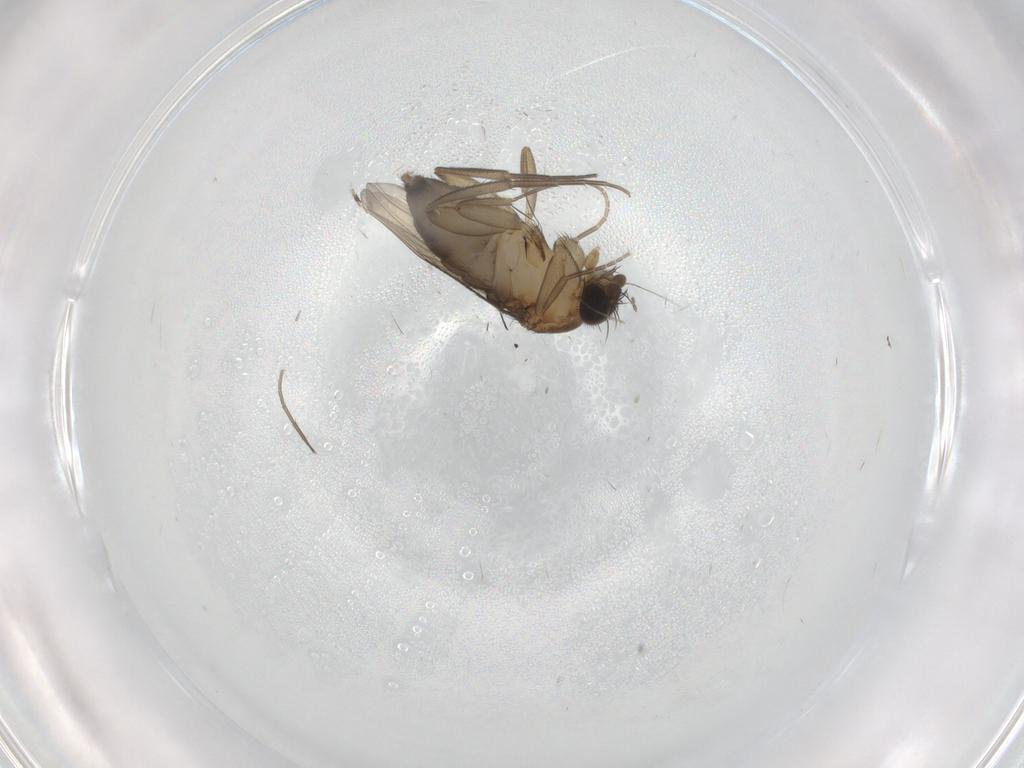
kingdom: Animalia
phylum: Arthropoda
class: Insecta
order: Diptera
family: Phoridae
